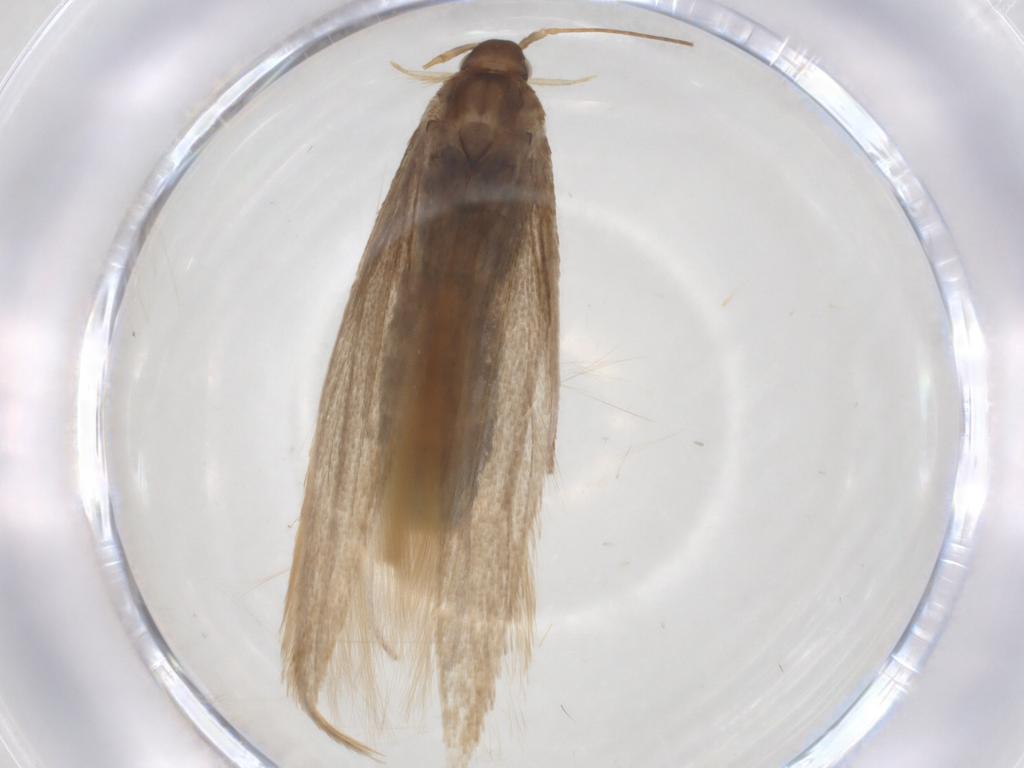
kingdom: Animalia
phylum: Arthropoda
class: Insecta
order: Lepidoptera
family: Coleophoridae
